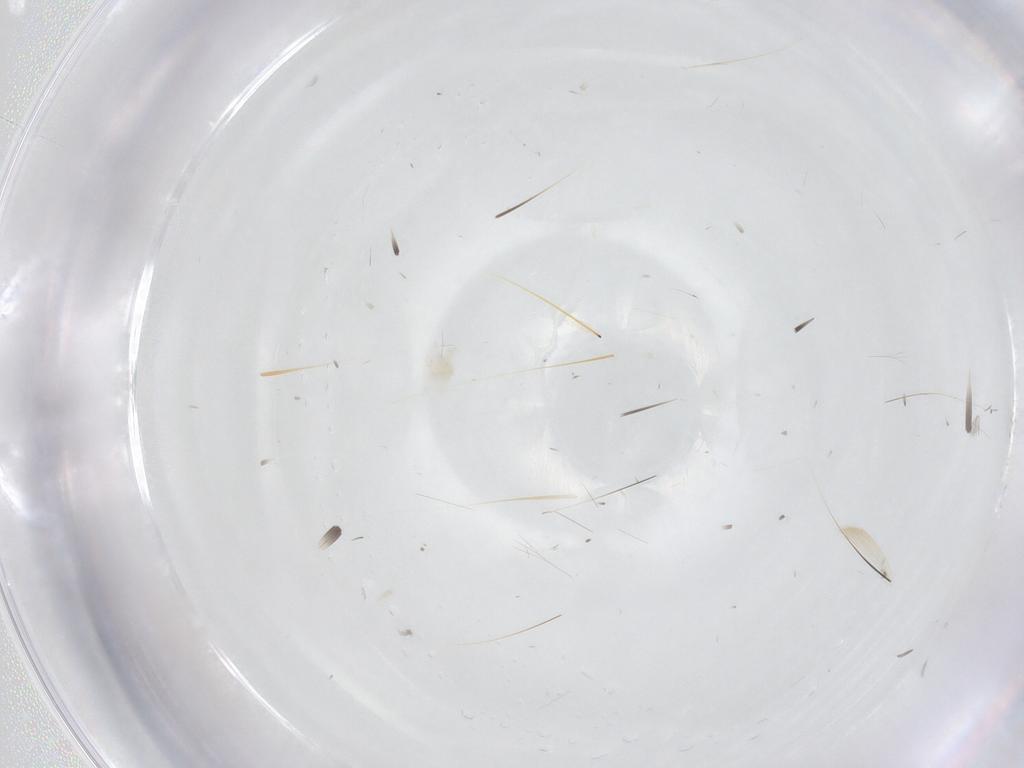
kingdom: Animalia
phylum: Arthropoda
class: Arachnida
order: Trombidiformes
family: Anystidae
